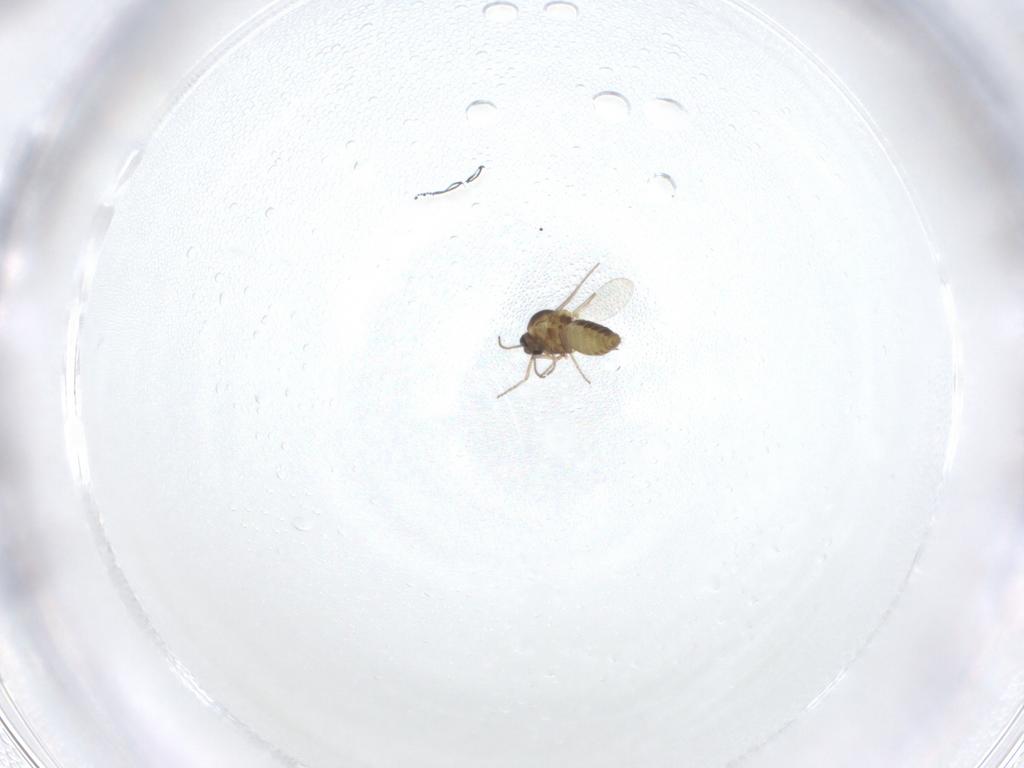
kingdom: Animalia
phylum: Arthropoda
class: Insecta
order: Diptera
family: Ceratopogonidae
